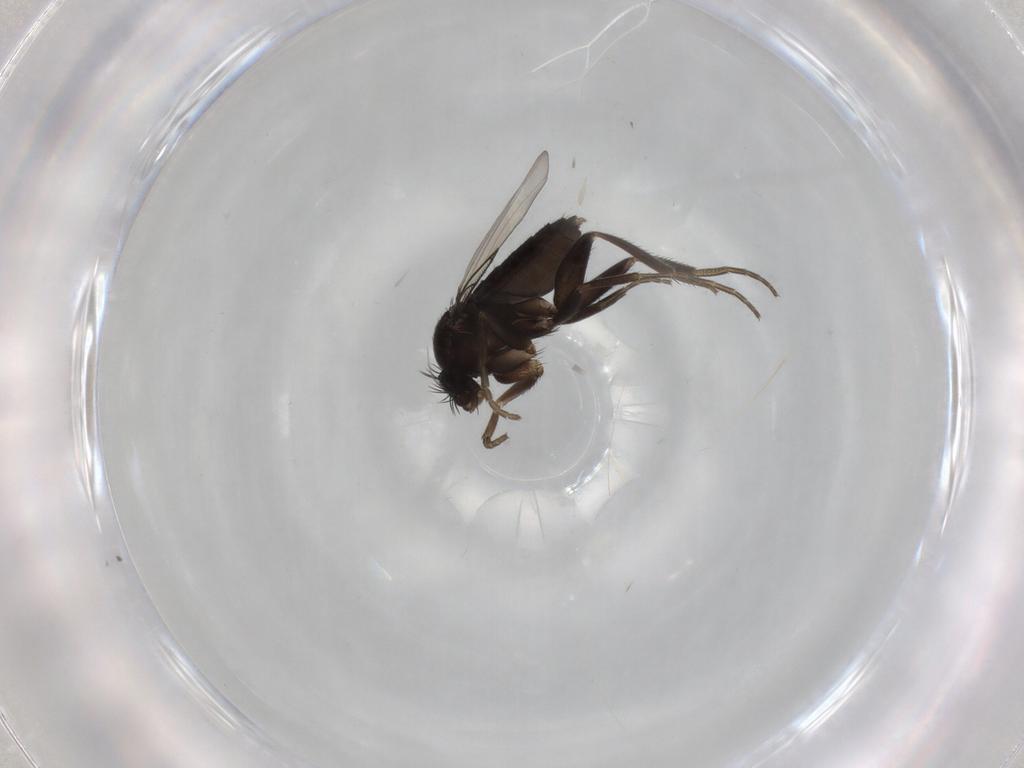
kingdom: Animalia
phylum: Arthropoda
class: Insecta
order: Diptera
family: Phoridae
